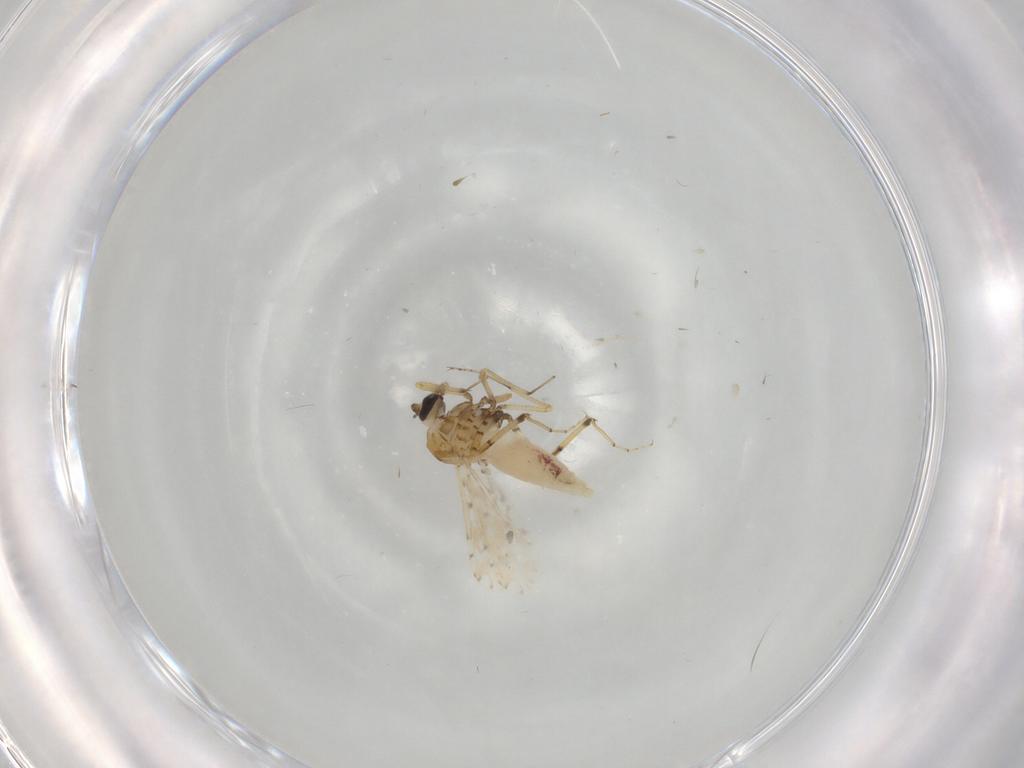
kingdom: Animalia
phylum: Arthropoda
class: Insecta
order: Diptera
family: Ceratopogonidae
